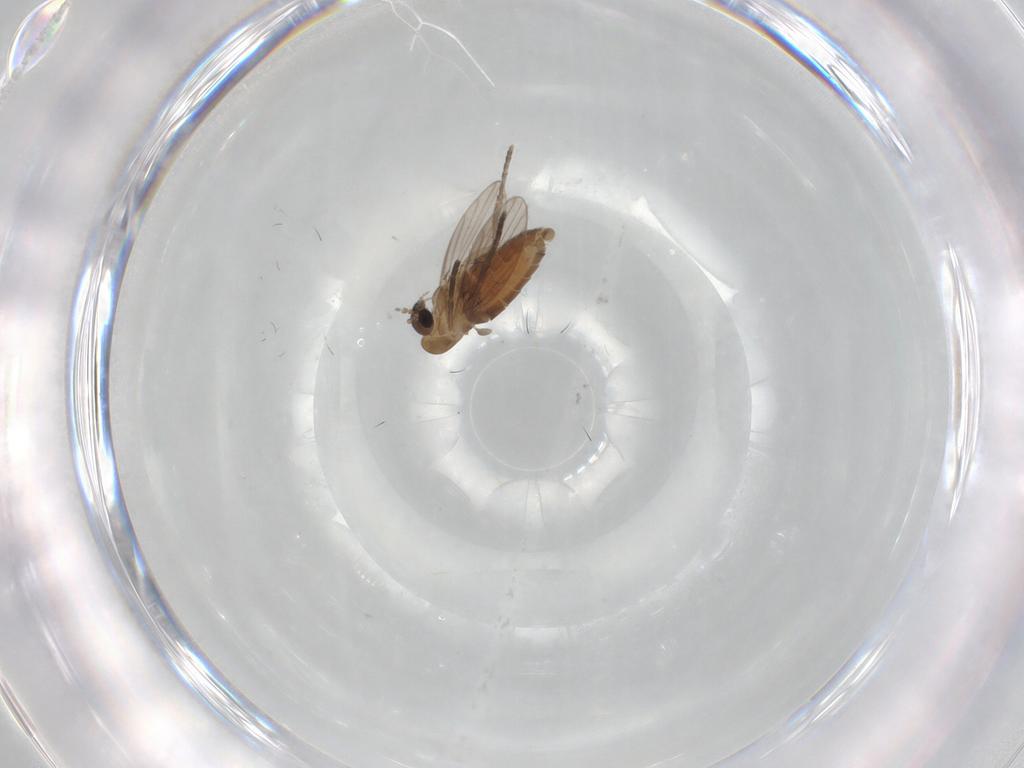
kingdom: Animalia
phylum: Arthropoda
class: Insecta
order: Diptera
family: Psychodidae
